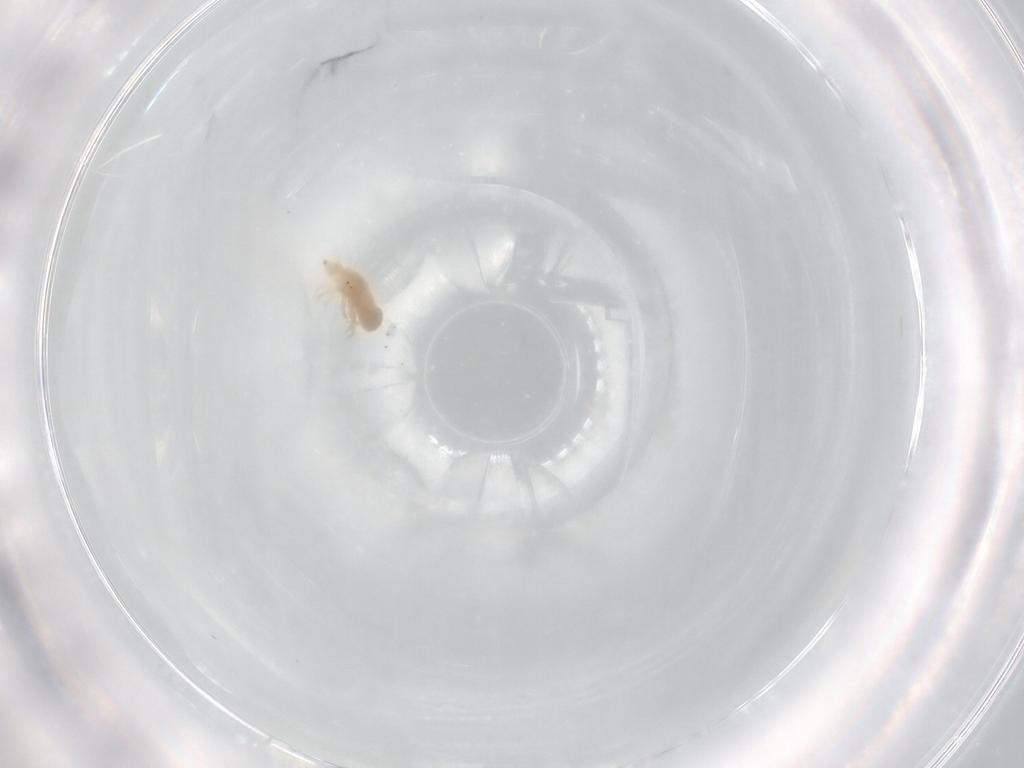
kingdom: Animalia
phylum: Arthropoda
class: Arachnida
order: Trombidiformes
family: Bdellidae
